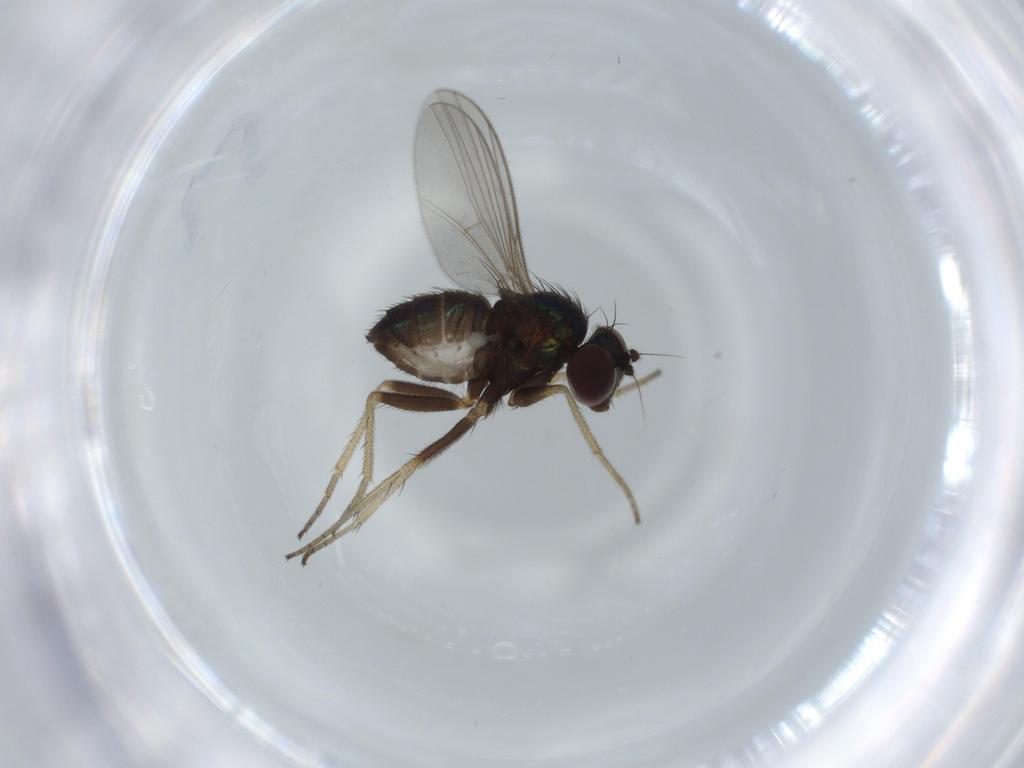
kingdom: Animalia
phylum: Arthropoda
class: Insecta
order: Diptera
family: Dolichopodidae
